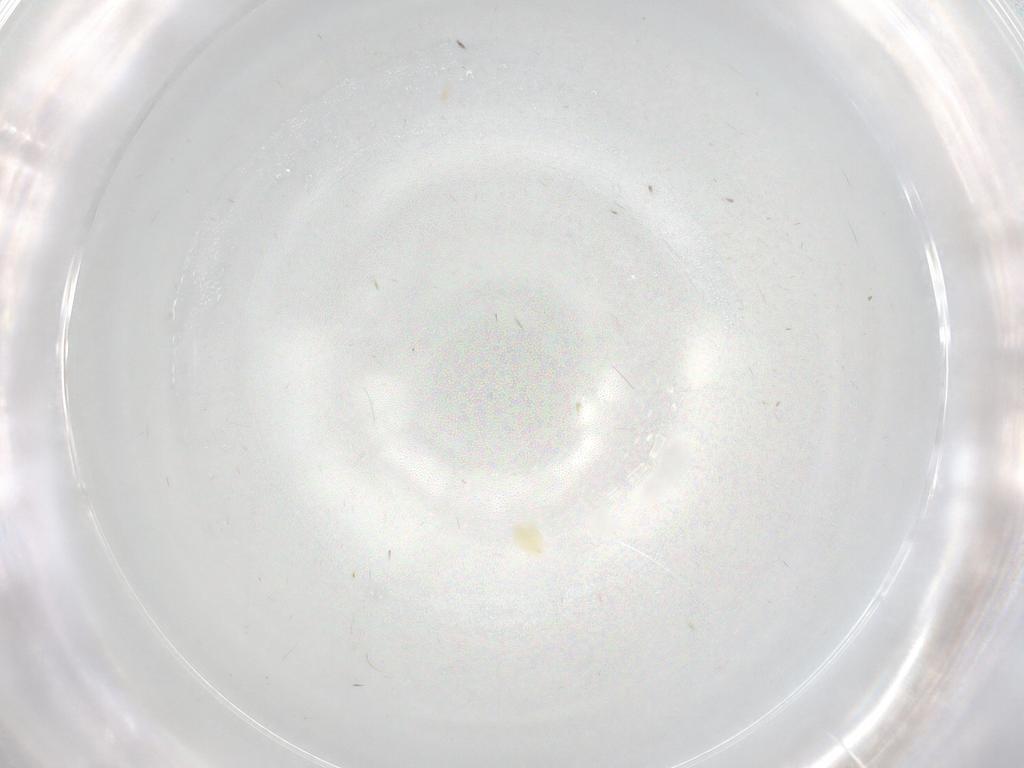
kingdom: Animalia
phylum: Arthropoda
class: Insecta
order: Diptera
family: Chironomidae
